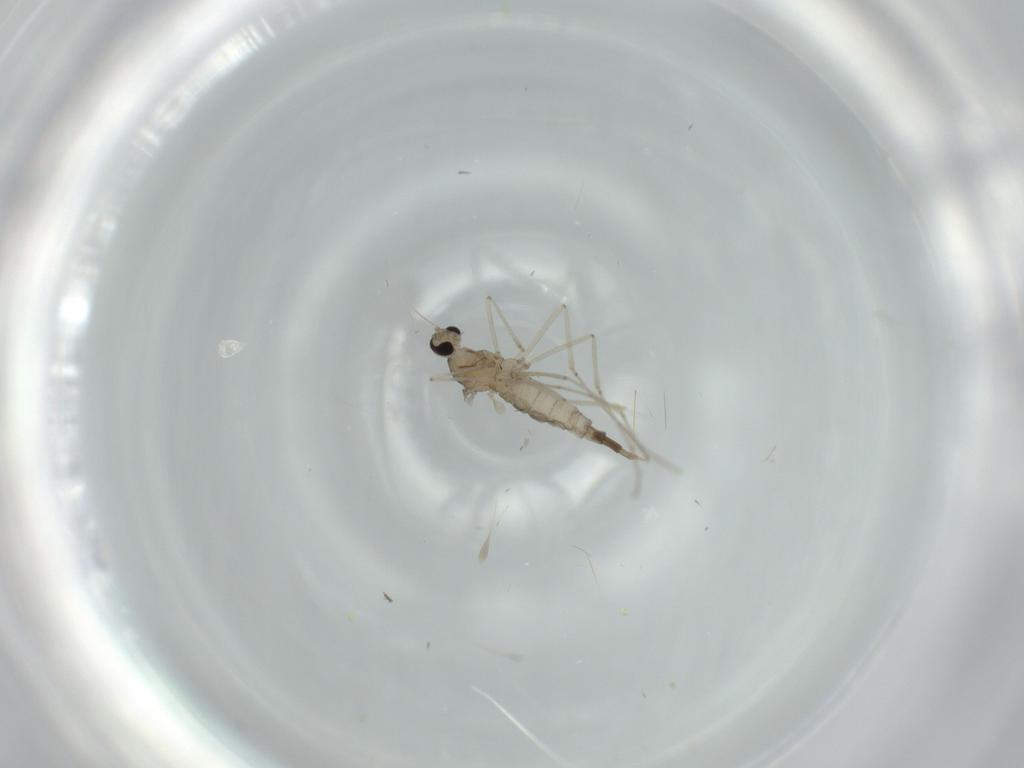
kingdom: Animalia
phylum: Arthropoda
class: Insecta
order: Diptera
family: Cecidomyiidae
